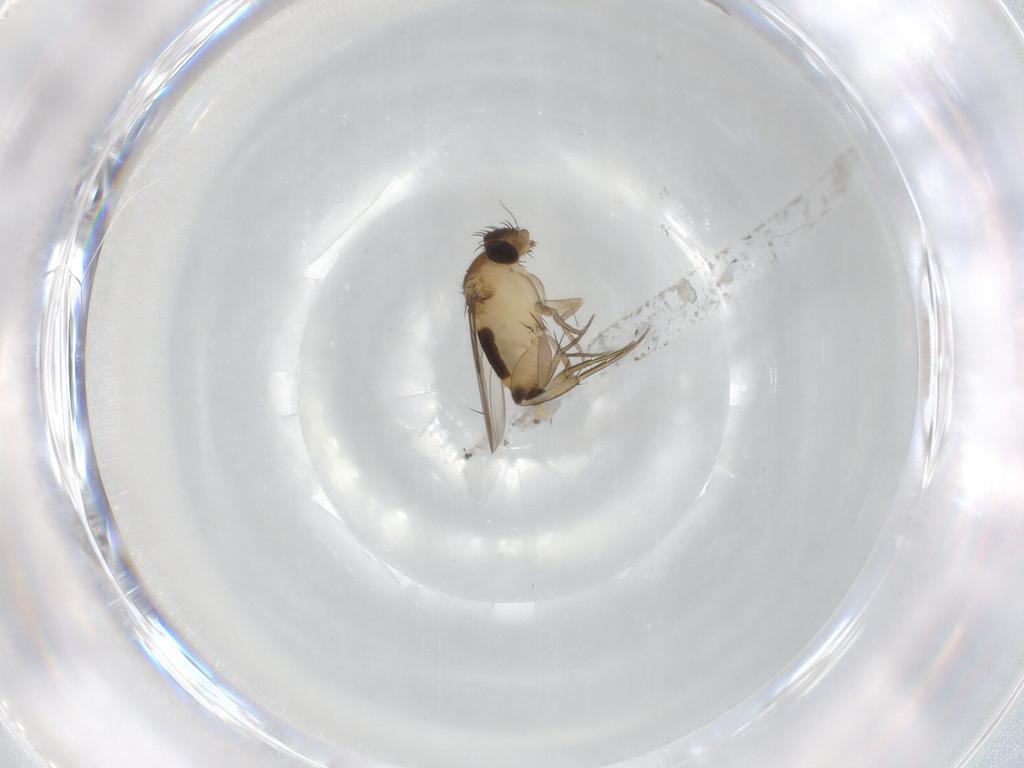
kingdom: Animalia
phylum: Arthropoda
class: Insecta
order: Diptera
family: Phoridae
